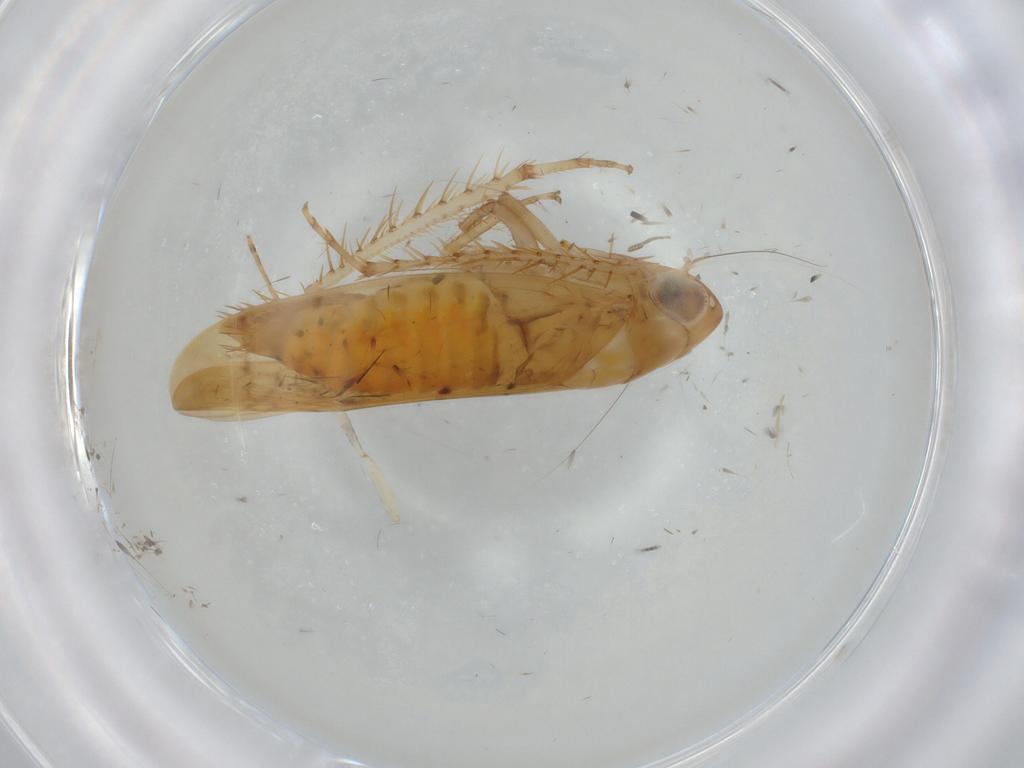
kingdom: Animalia
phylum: Arthropoda
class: Insecta
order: Hemiptera
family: Cicadellidae
